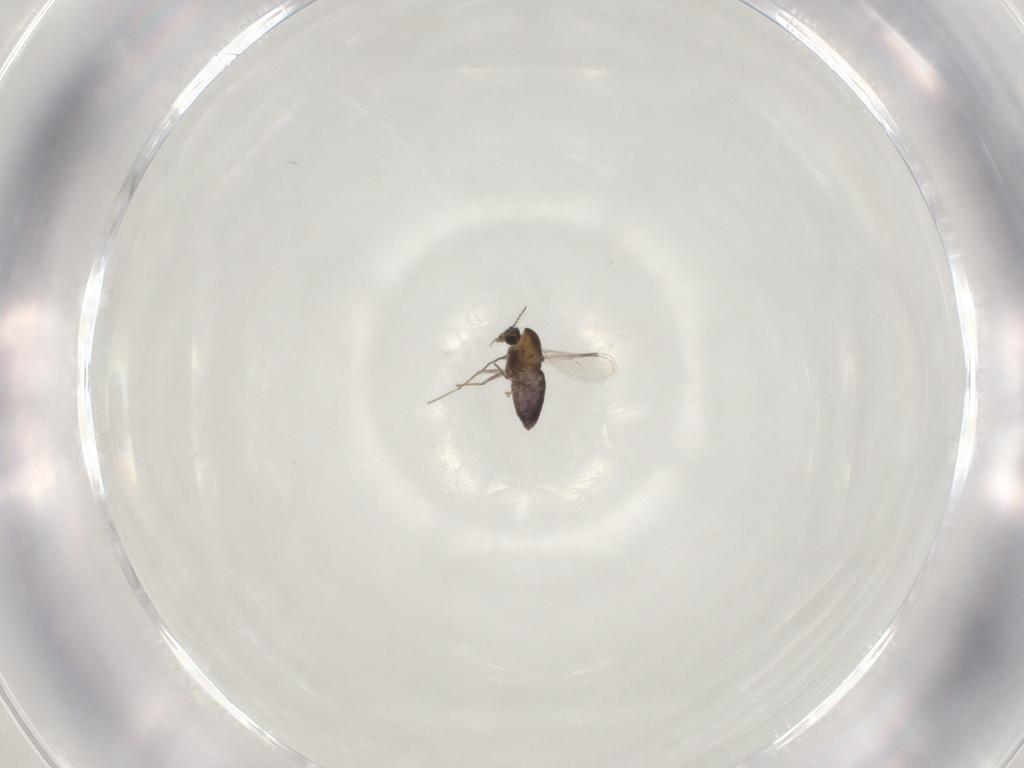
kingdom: Animalia
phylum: Arthropoda
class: Insecta
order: Diptera
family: Chironomidae
